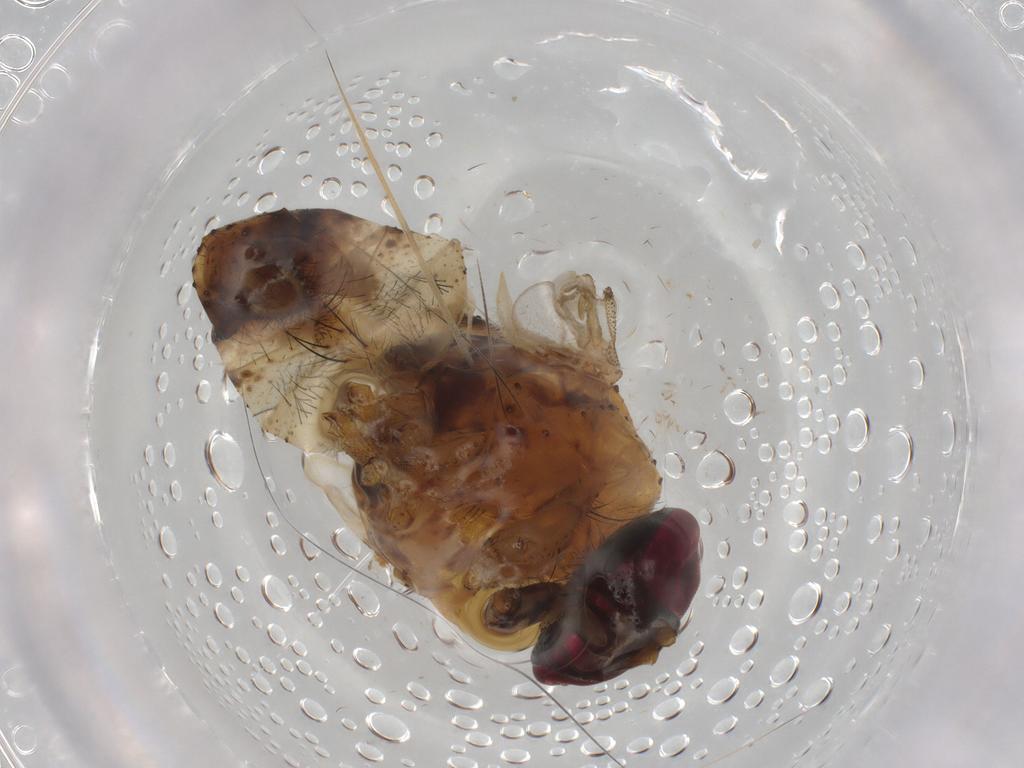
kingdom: Animalia
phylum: Arthropoda
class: Insecta
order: Diptera
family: Muscidae
